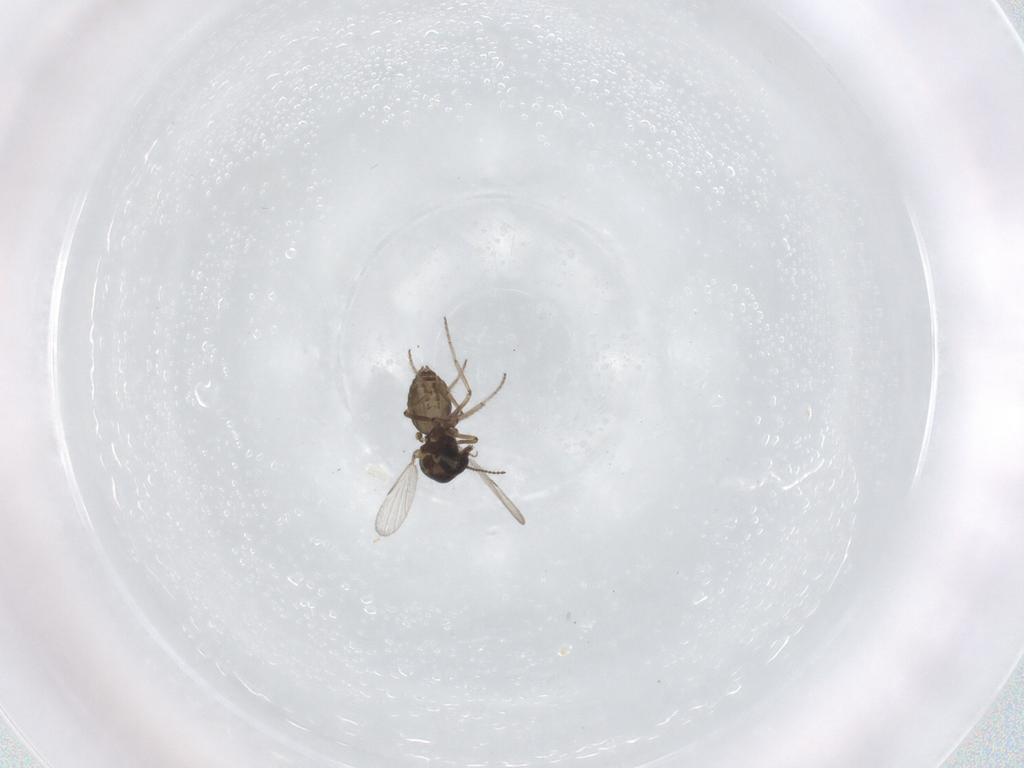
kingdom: Animalia
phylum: Arthropoda
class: Insecta
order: Diptera
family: Ceratopogonidae
